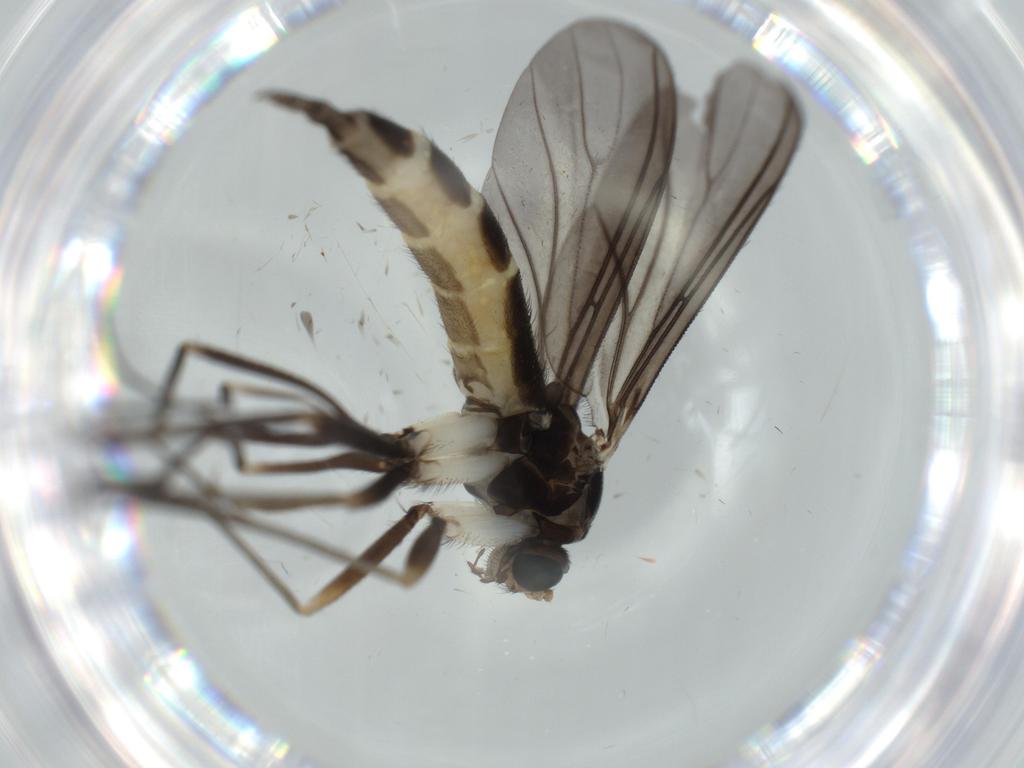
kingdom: Animalia
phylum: Arthropoda
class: Insecta
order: Diptera
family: Sciaridae
